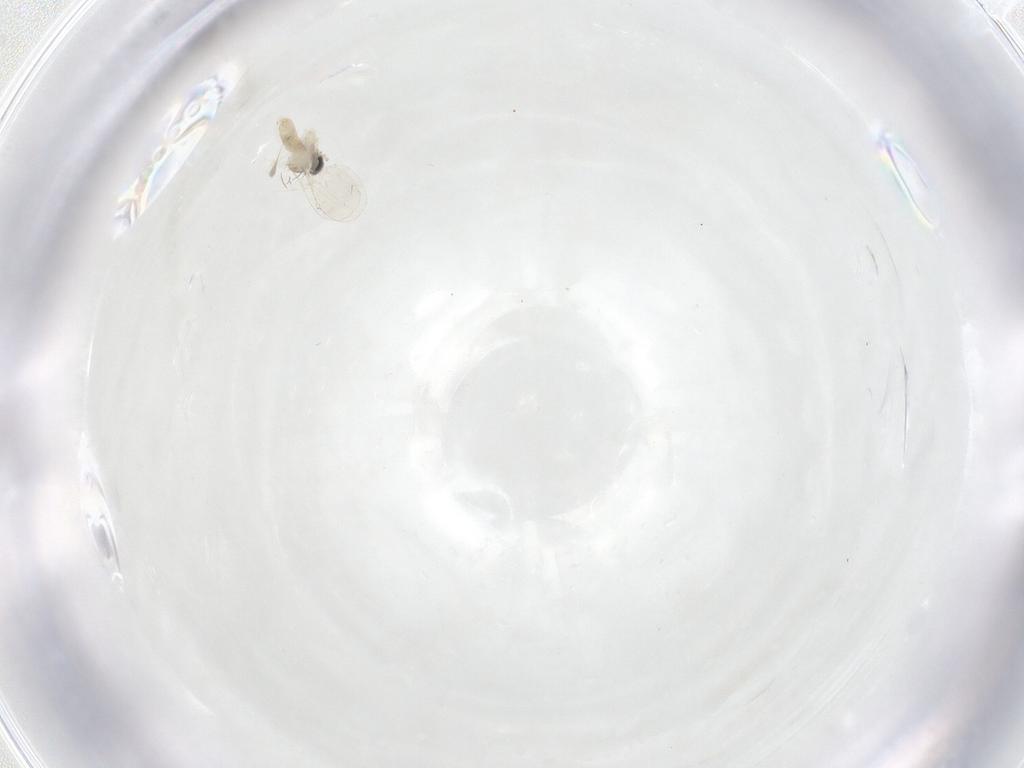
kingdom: Animalia
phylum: Arthropoda
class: Insecta
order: Diptera
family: Cecidomyiidae
